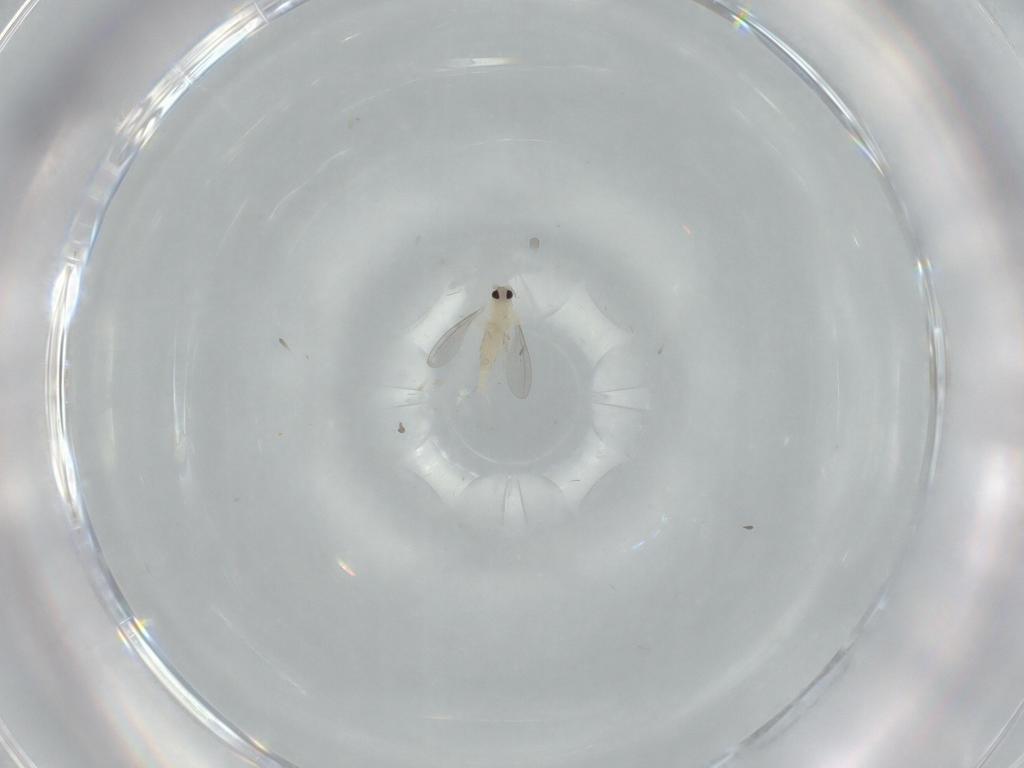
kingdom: Animalia
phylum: Arthropoda
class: Insecta
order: Diptera
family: Cecidomyiidae
